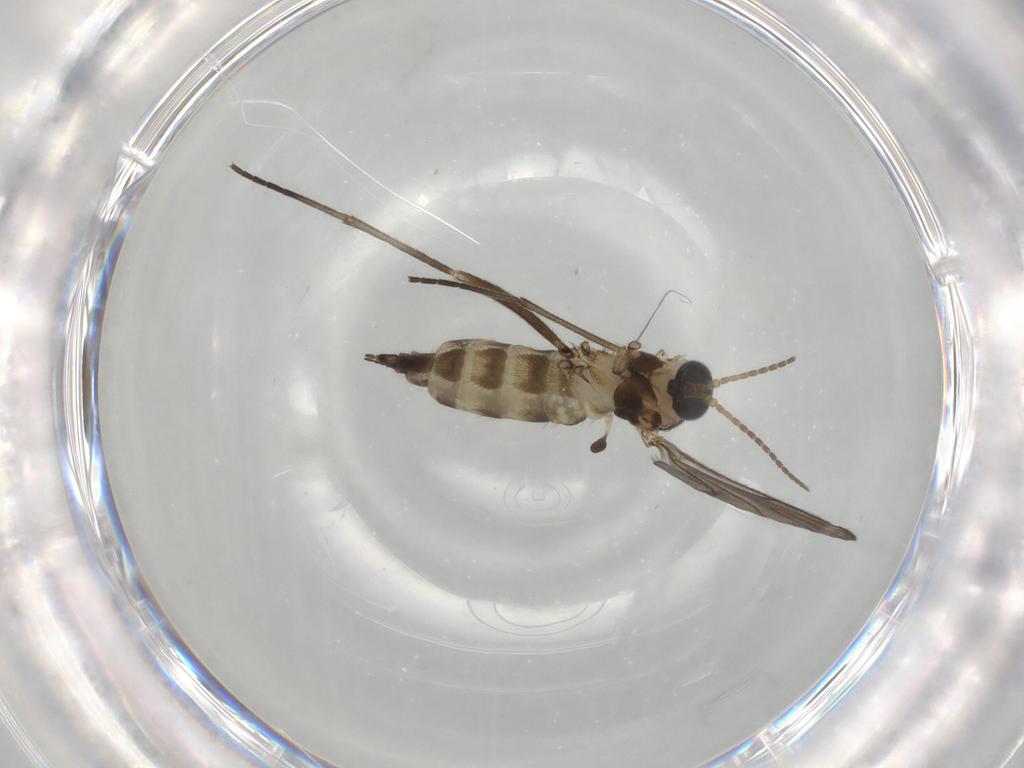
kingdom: Animalia
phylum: Arthropoda
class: Insecta
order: Diptera
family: Sciaridae
